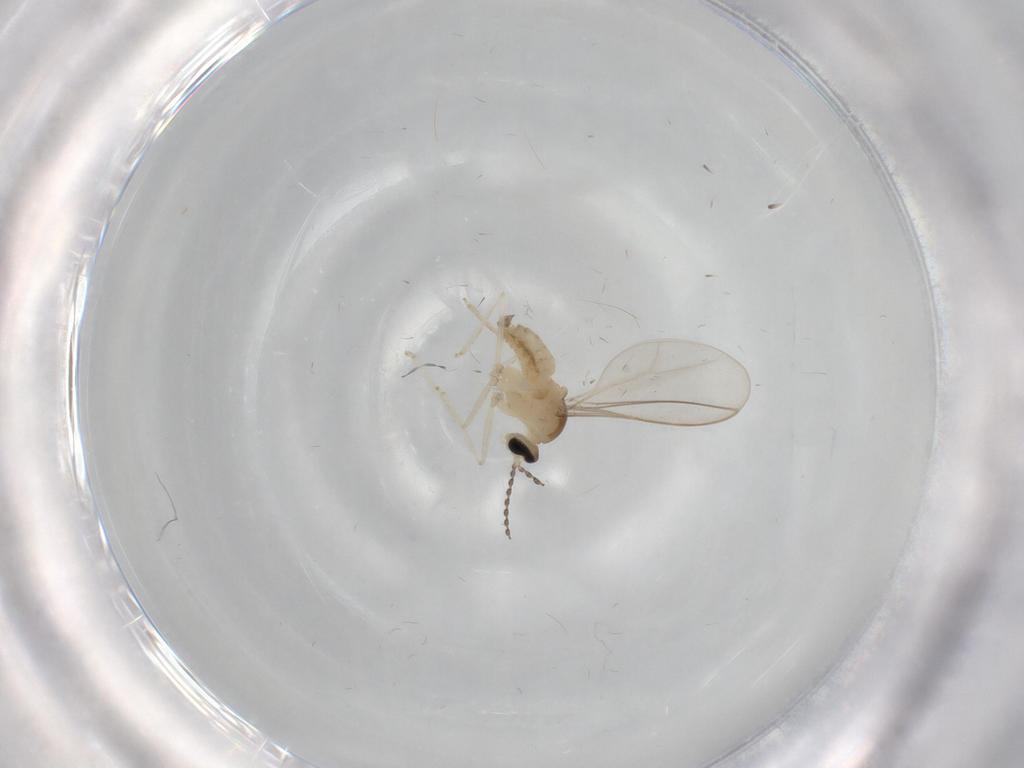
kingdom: Animalia
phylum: Arthropoda
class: Insecta
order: Diptera
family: Cecidomyiidae
